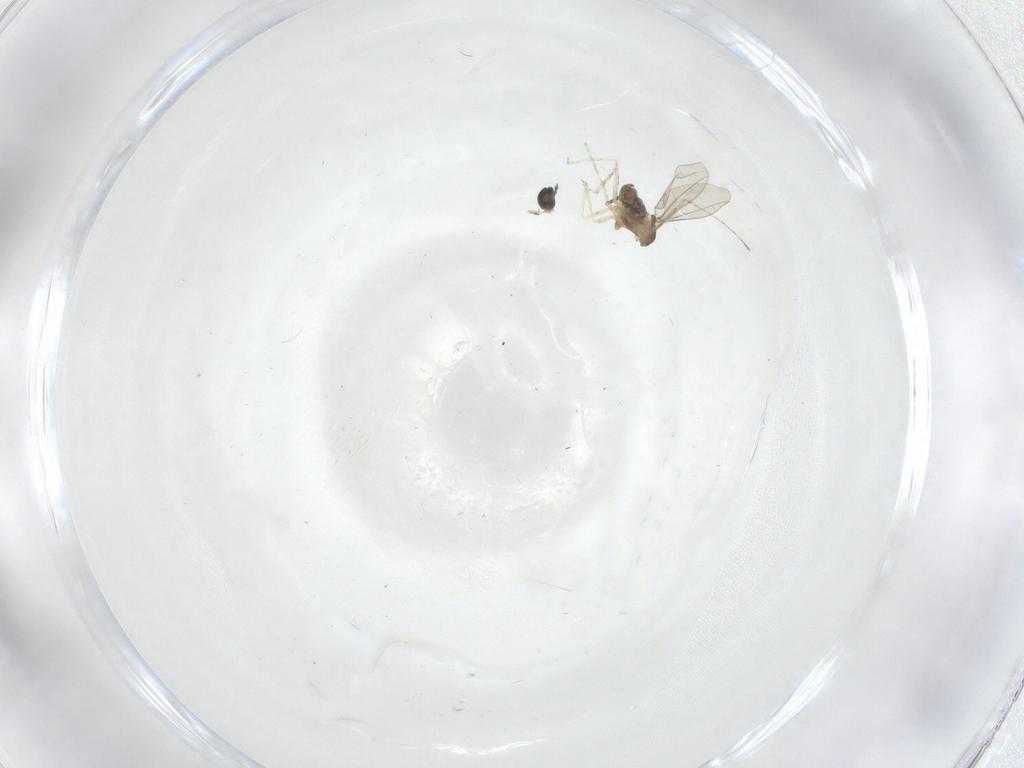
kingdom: Animalia
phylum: Arthropoda
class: Insecta
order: Diptera
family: Cecidomyiidae
